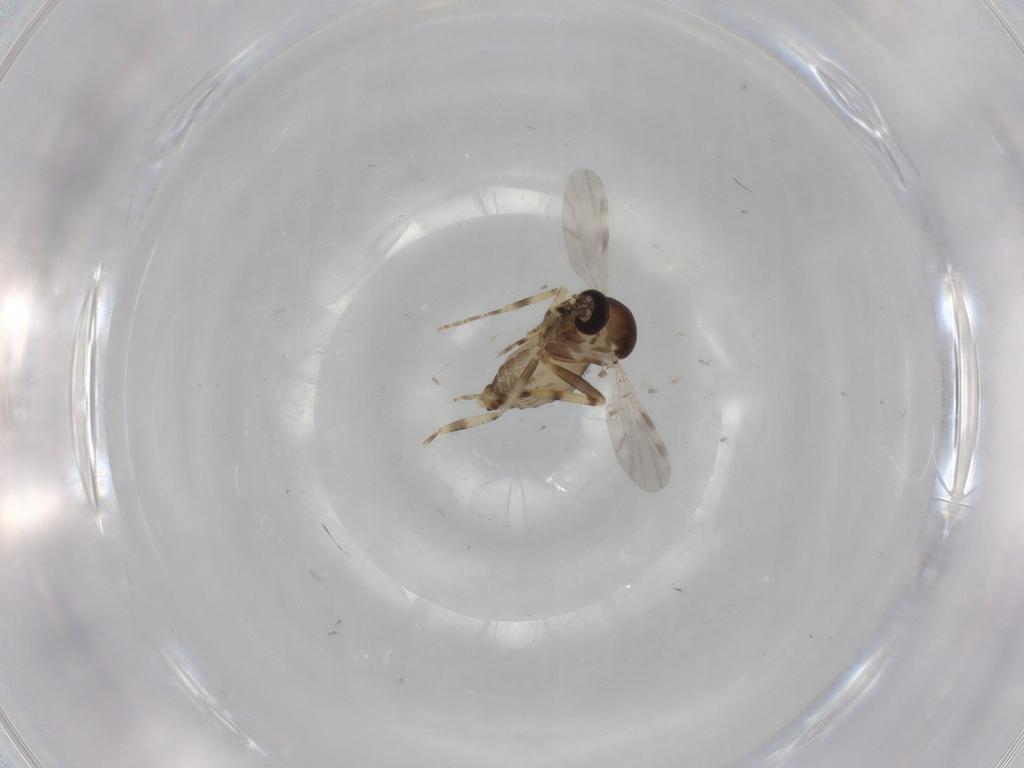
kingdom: Animalia
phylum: Arthropoda
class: Insecta
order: Diptera
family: Ceratopogonidae
